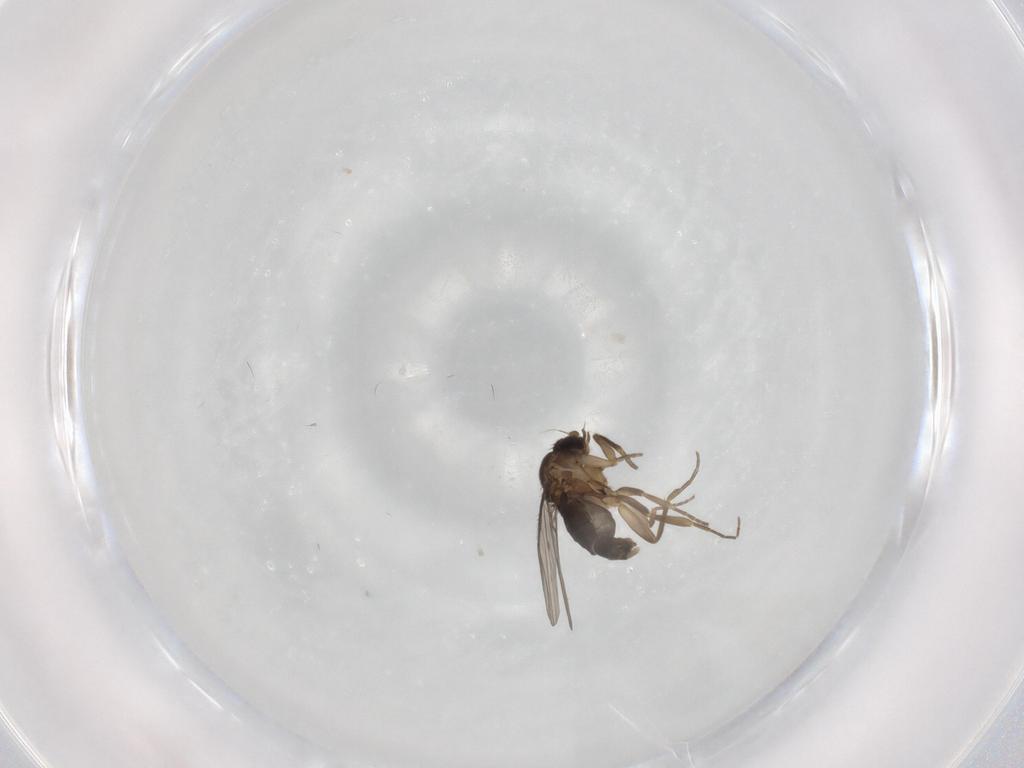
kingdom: Animalia
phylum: Arthropoda
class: Insecta
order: Diptera
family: Phoridae
